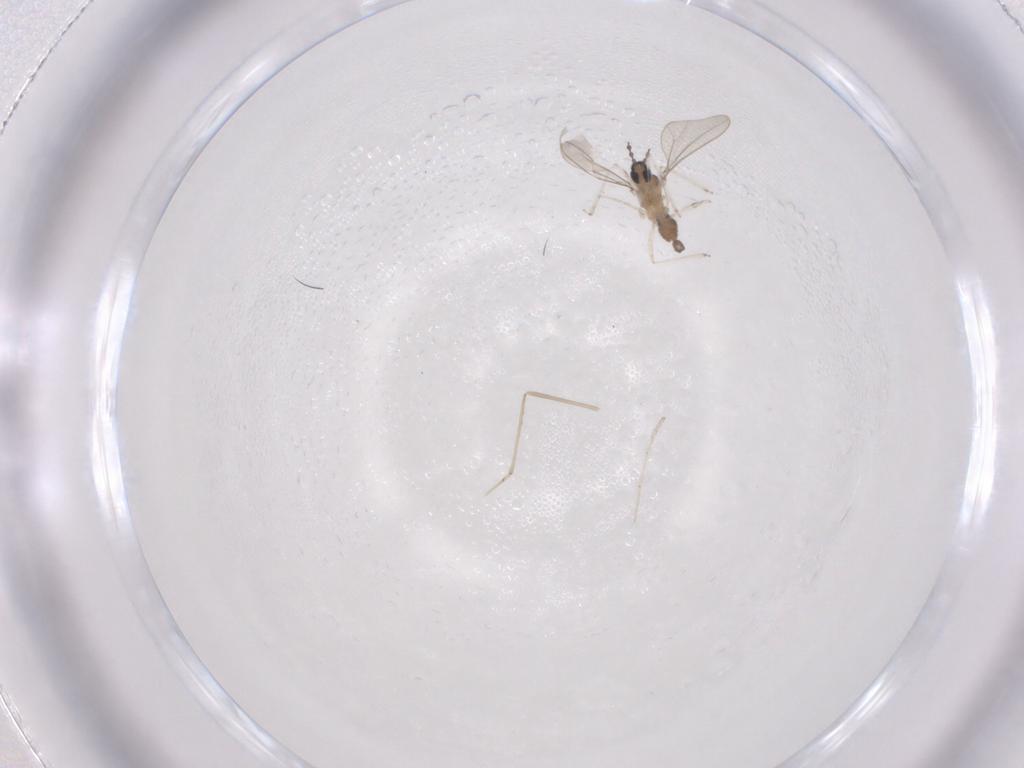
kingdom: Animalia
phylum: Arthropoda
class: Insecta
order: Diptera
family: Cecidomyiidae
